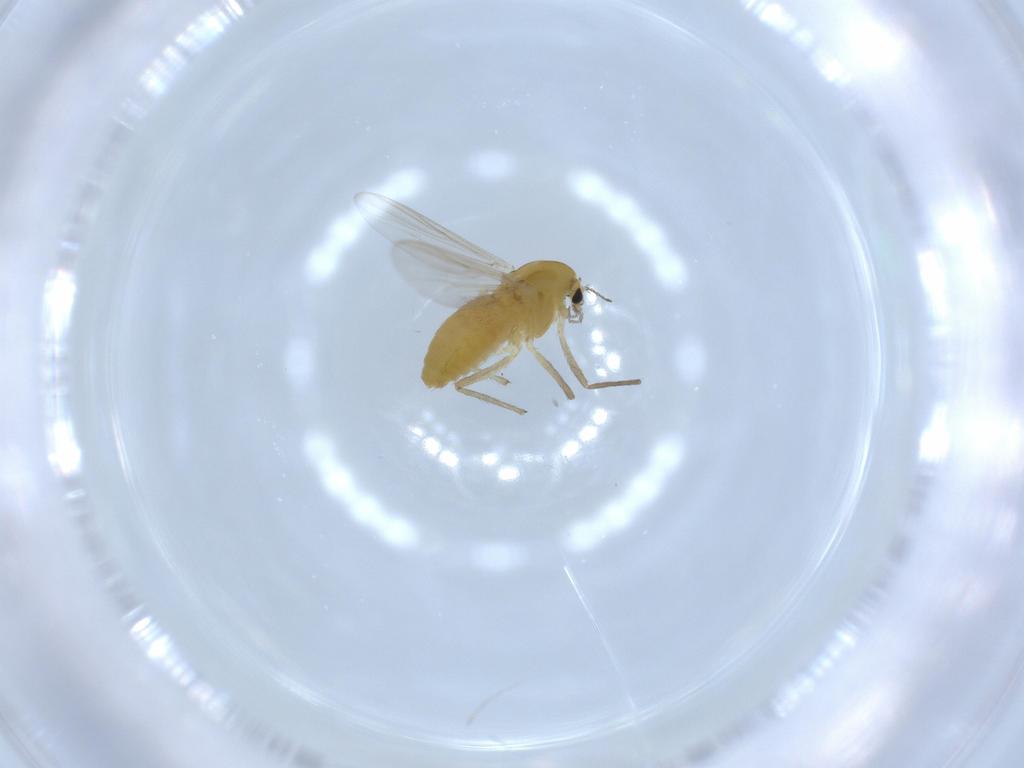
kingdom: Animalia
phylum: Arthropoda
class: Insecta
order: Diptera
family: Chironomidae
